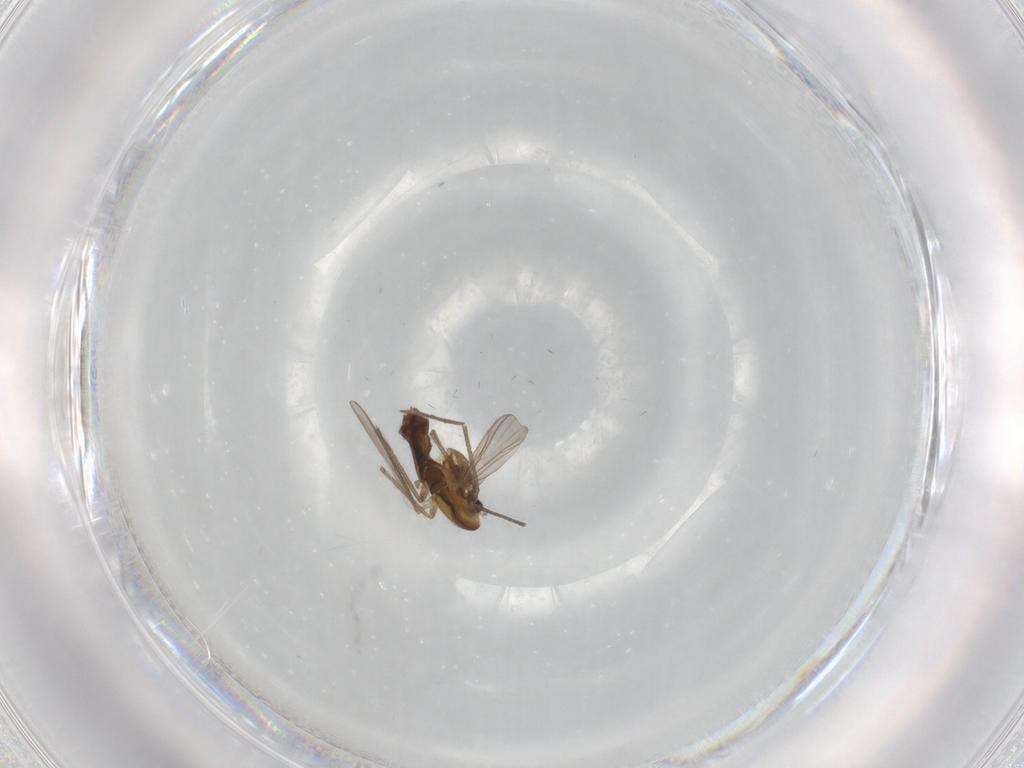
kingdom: Animalia
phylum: Arthropoda
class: Insecta
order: Diptera
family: Chironomidae
